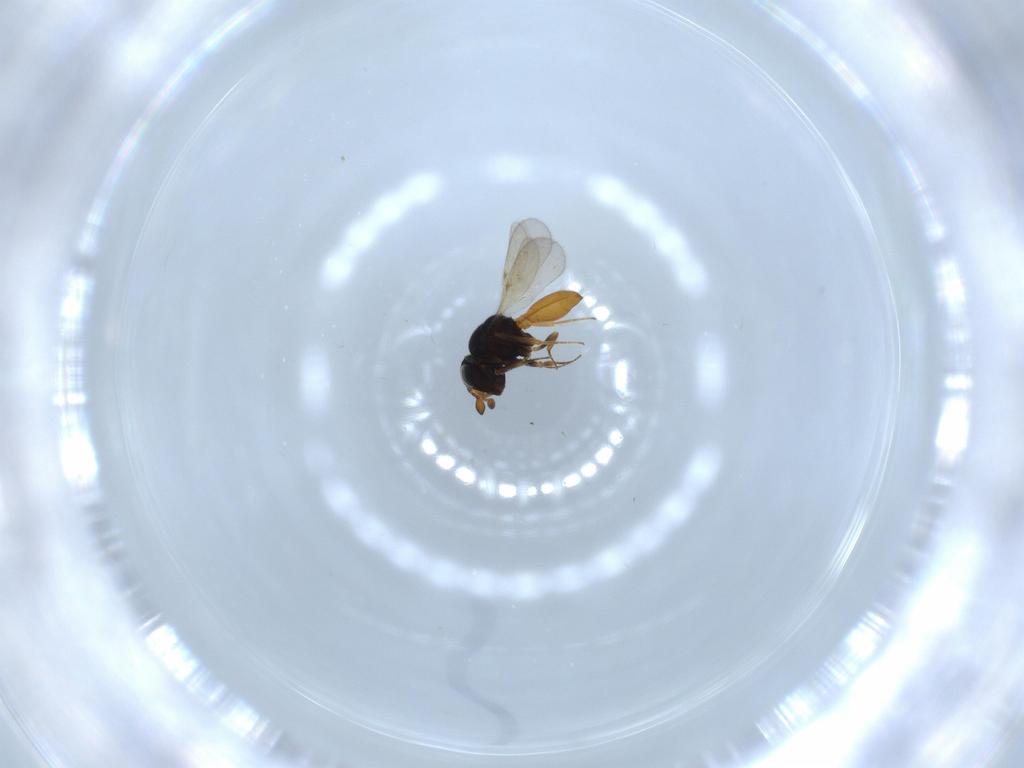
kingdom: Animalia
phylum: Arthropoda
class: Insecta
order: Hymenoptera
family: Scelionidae
